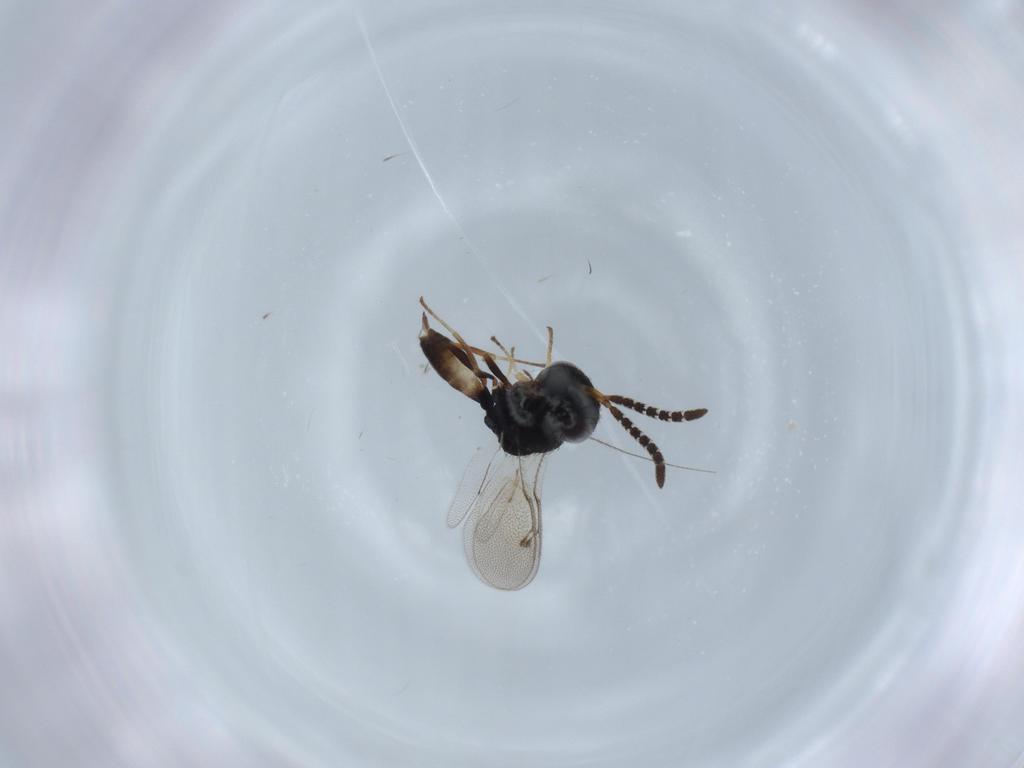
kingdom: Animalia
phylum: Arthropoda
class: Insecta
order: Hymenoptera
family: Agaonidae
